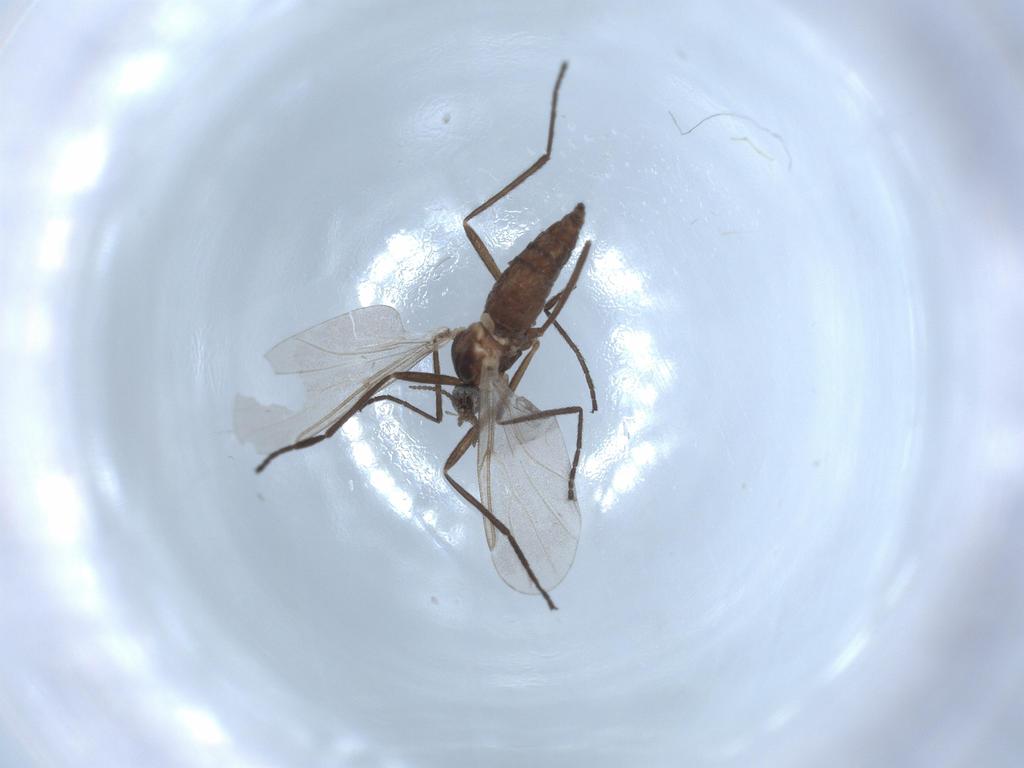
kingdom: Animalia
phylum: Arthropoda
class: Insecta
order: Diptera
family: Cecidomyiidae
